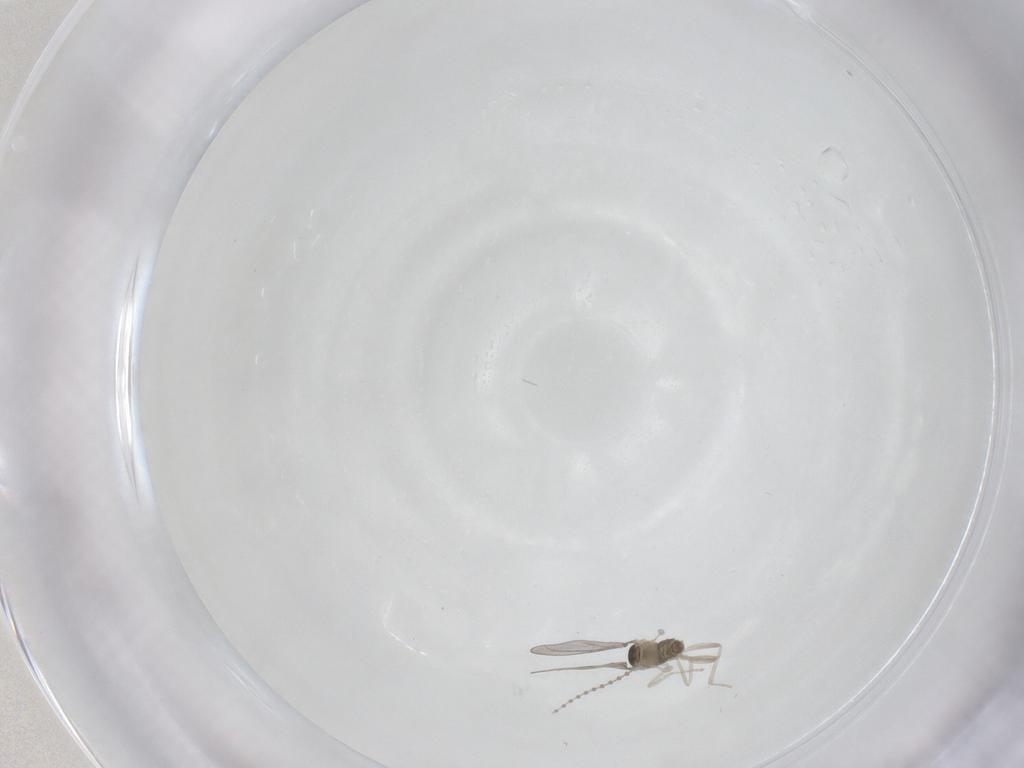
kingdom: Animalia
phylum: Arthropoda
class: Insecta
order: Diptera
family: Cecidomyiidae
